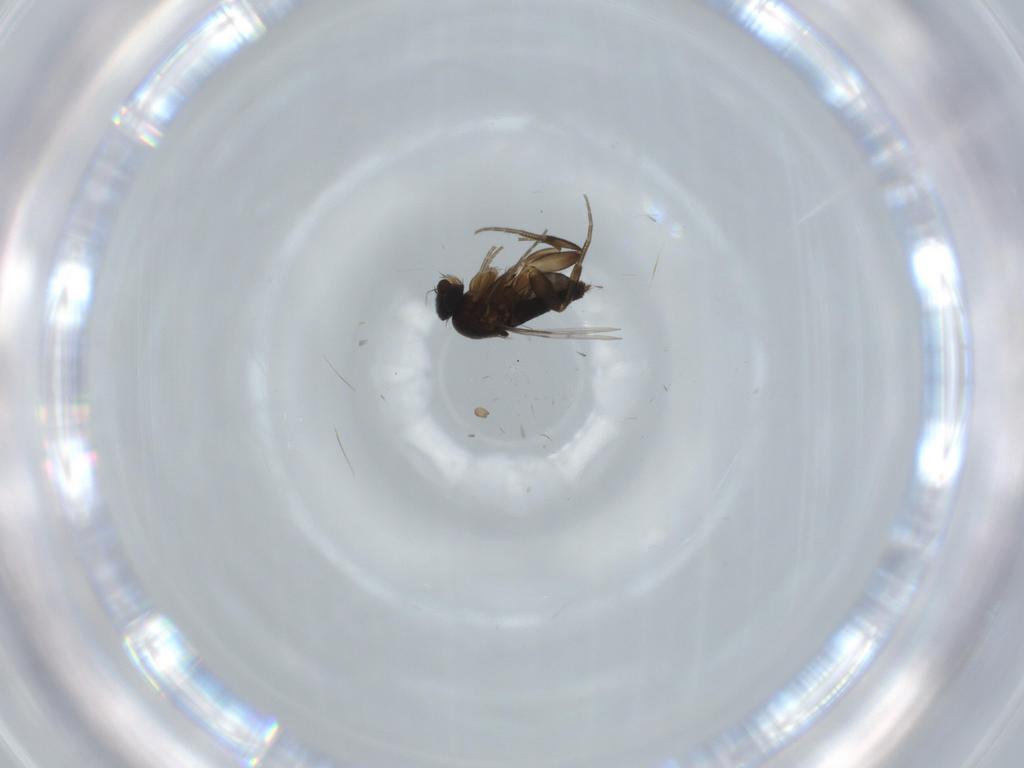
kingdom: Animalia
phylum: Arthropoda
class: Insecta
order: Diptera
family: Phoridae
